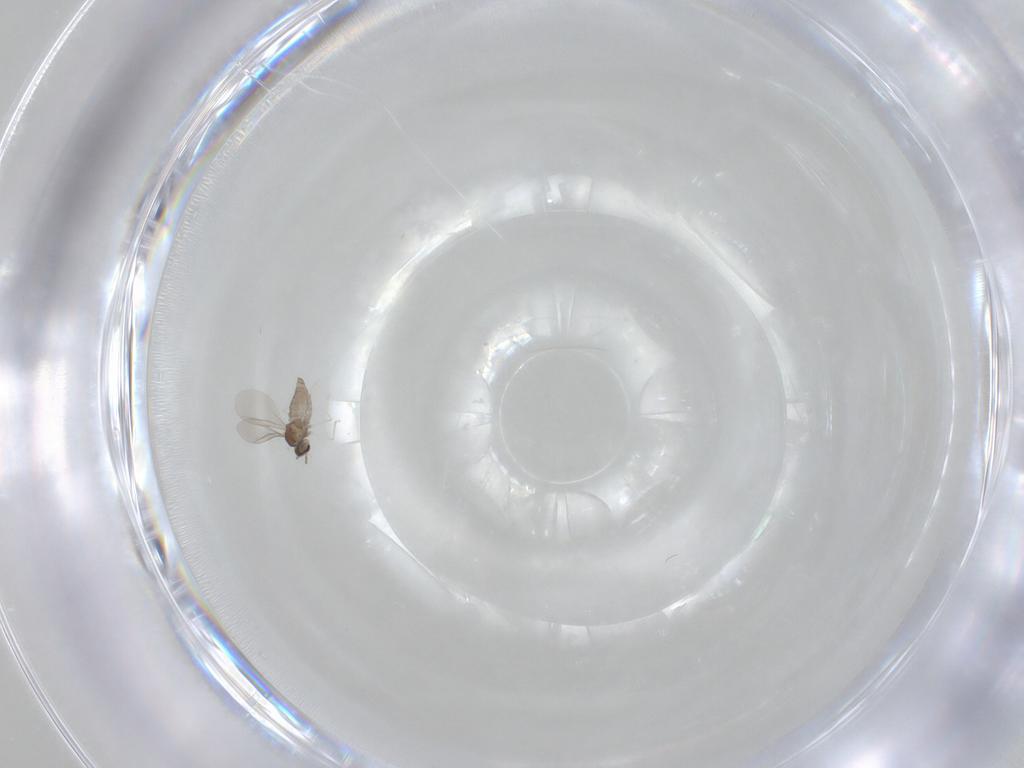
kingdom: Animalia
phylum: Arthropoda
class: Insecta
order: Diptera
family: Cecidomyiidae
